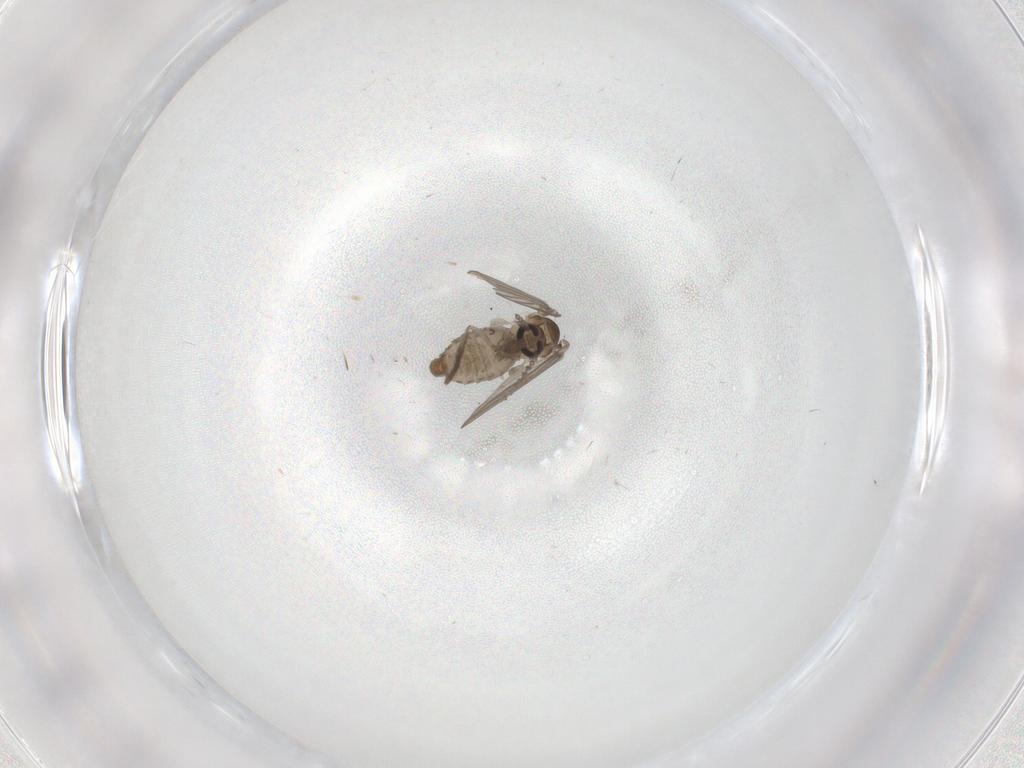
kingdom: Animalia
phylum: Arthropoda
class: Insecta
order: Diptera
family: Psychodidae
